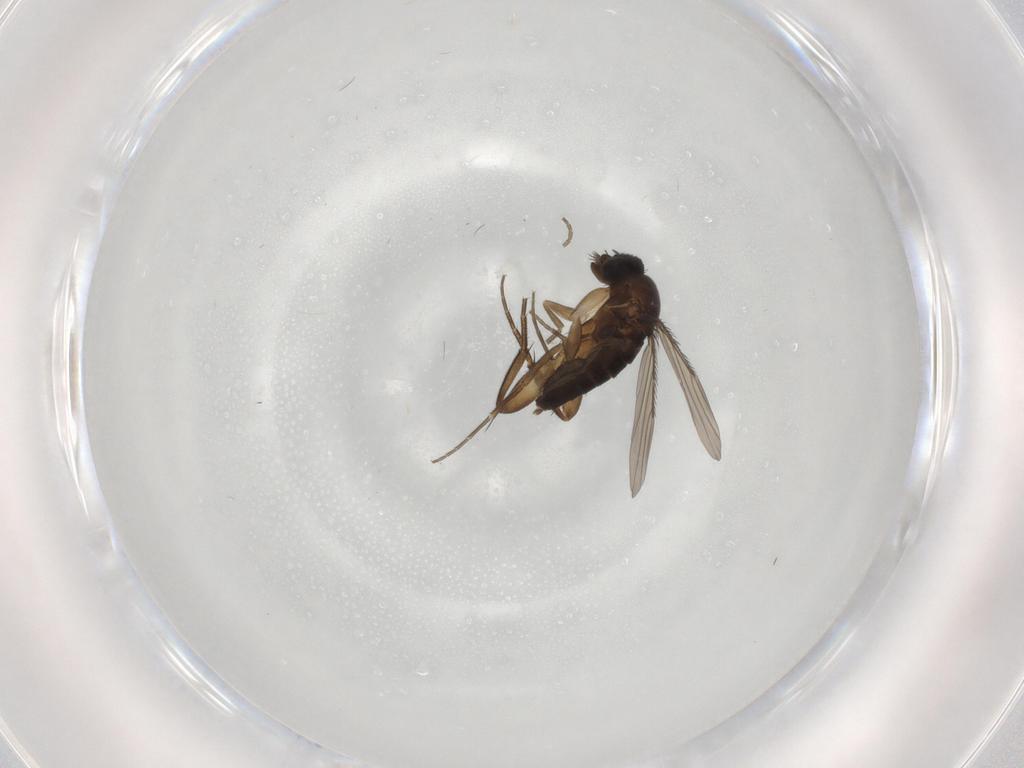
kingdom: Animalia
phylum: Arthropoda
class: Insecta
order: Diptera
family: Phoridae
